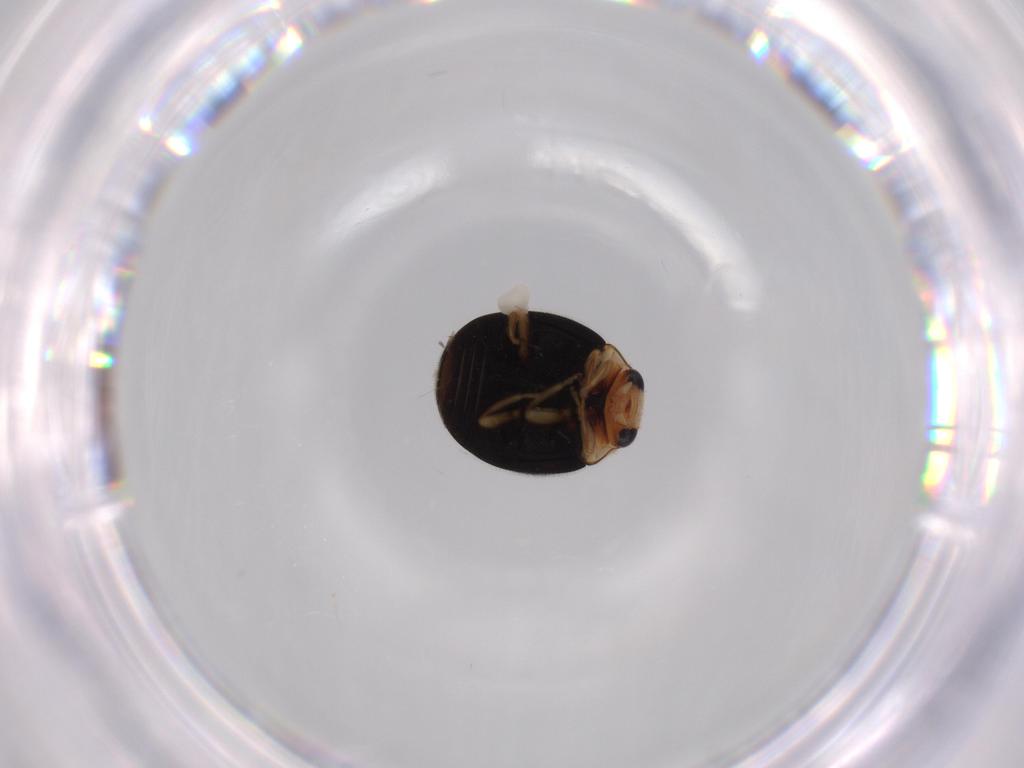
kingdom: Animalia
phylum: Arthropoda
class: Insecta
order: Coleoptera
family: Coccinellidae
